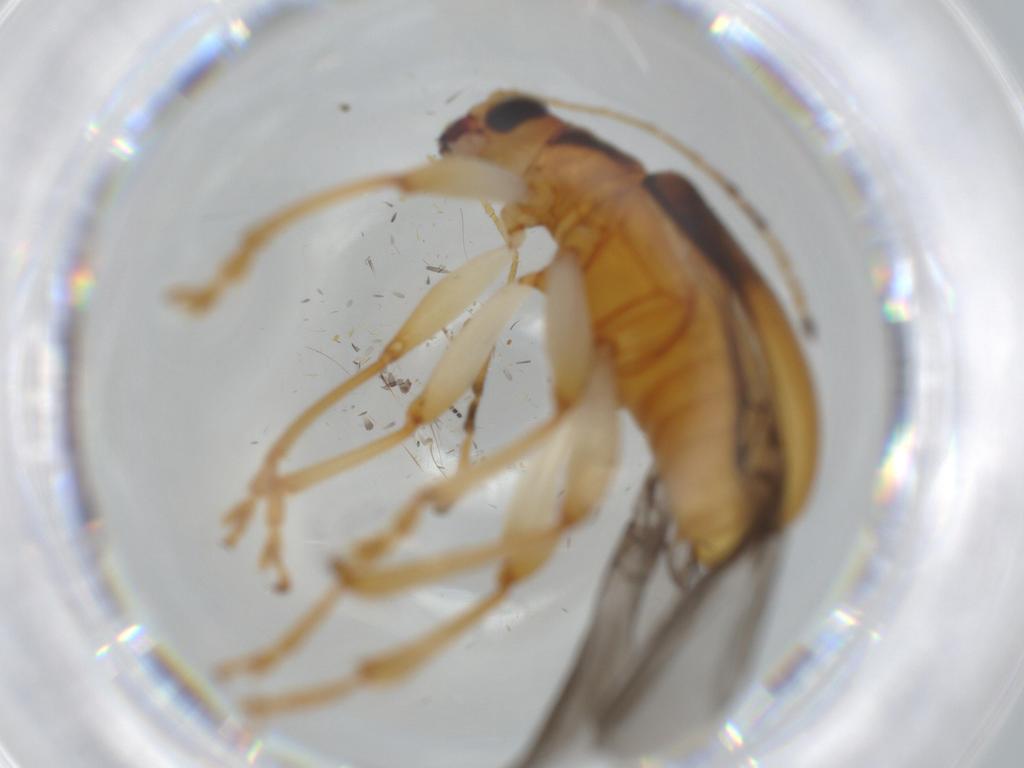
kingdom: Animalia
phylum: Arthropoda
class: Insecta
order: Coleoptera
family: Chrysomelidae
